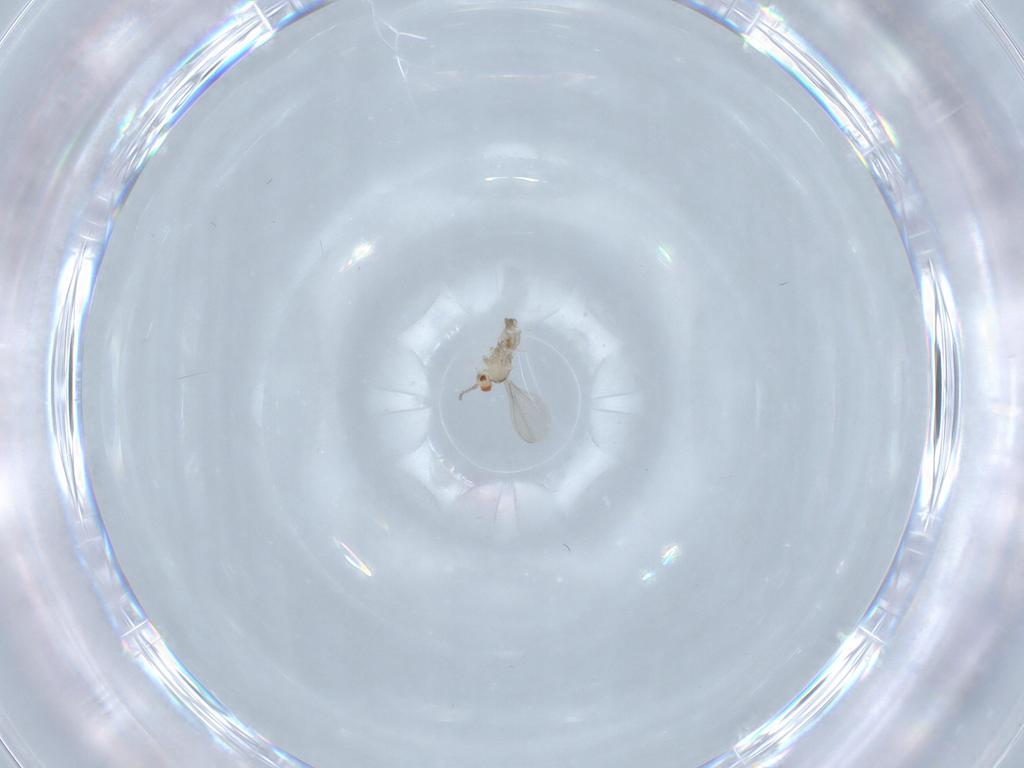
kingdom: Animalia
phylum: Arthropoda
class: Insecta
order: Diptera
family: Cecidomyiidae
